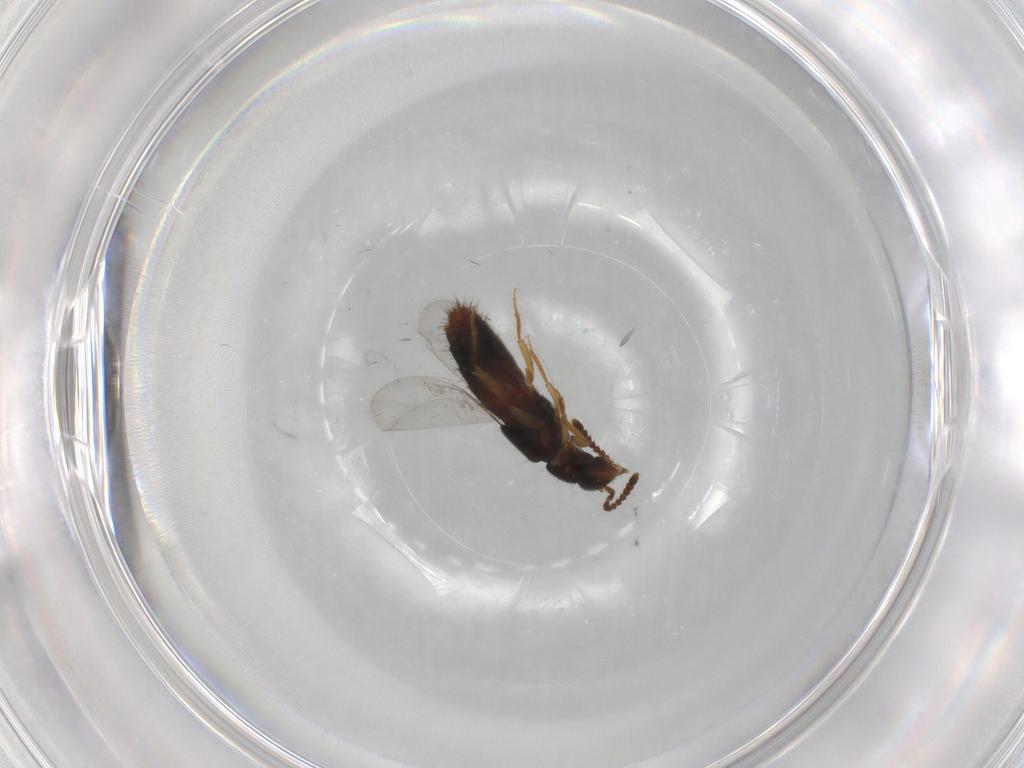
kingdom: Animalia
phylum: Arthropoda
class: Insecta
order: Coleoptera
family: Staphylinidae
